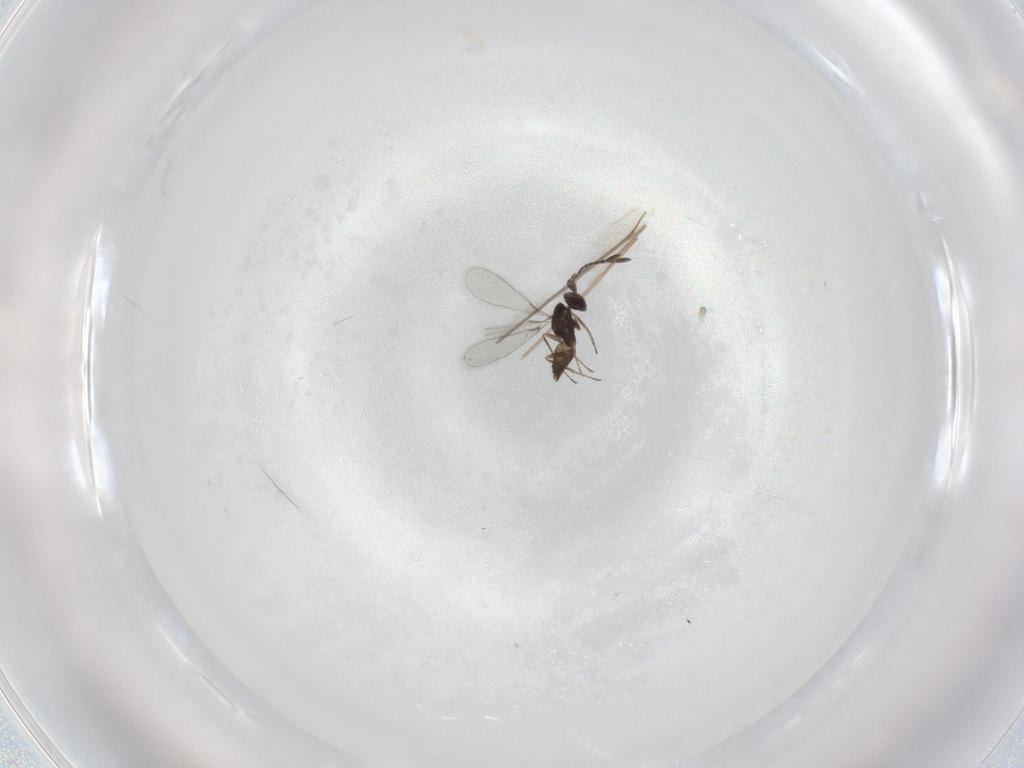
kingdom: Animalia
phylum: Arthropoda
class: Insecta
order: Hymenoptera
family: Mymaridae
